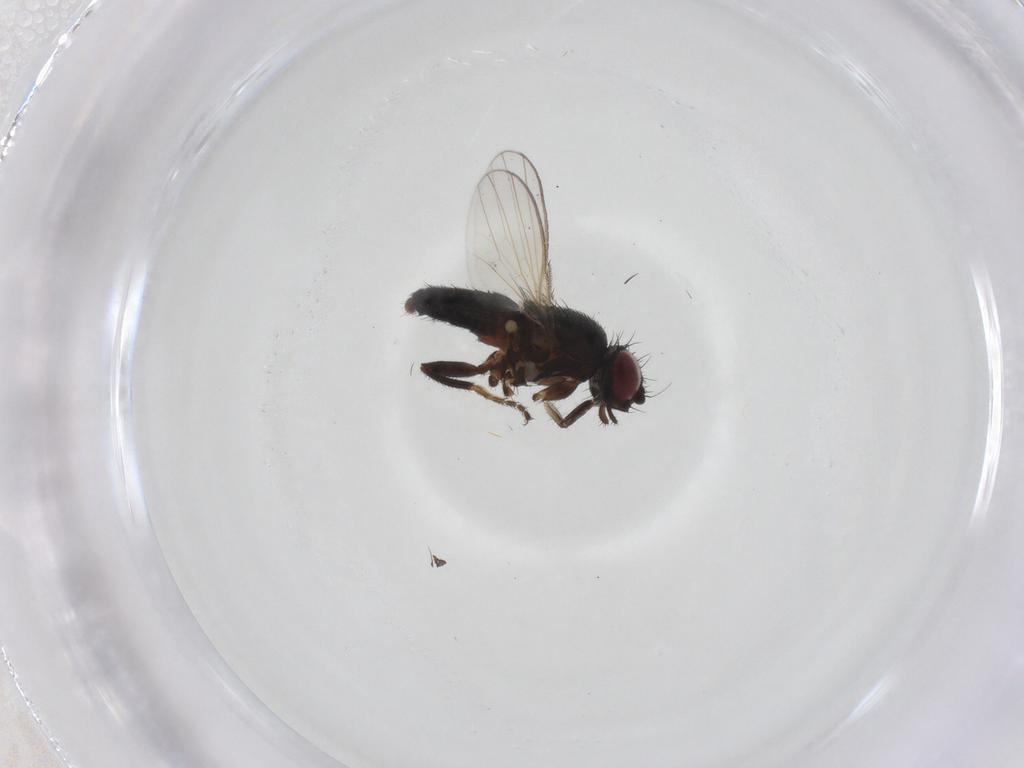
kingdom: Animalia
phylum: Arthropoda
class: Insecta
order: Diptera
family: Milichiidae
